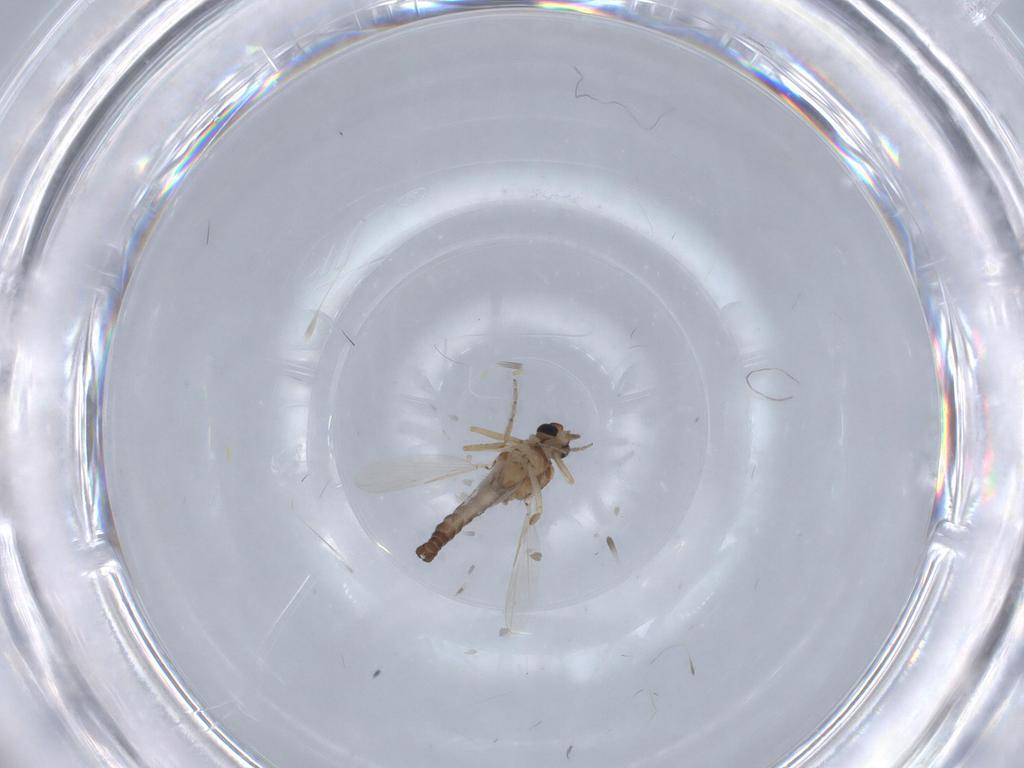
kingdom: Animalia
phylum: Arthropoda
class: Insecta
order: Diptera
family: Ceratopogonidae
